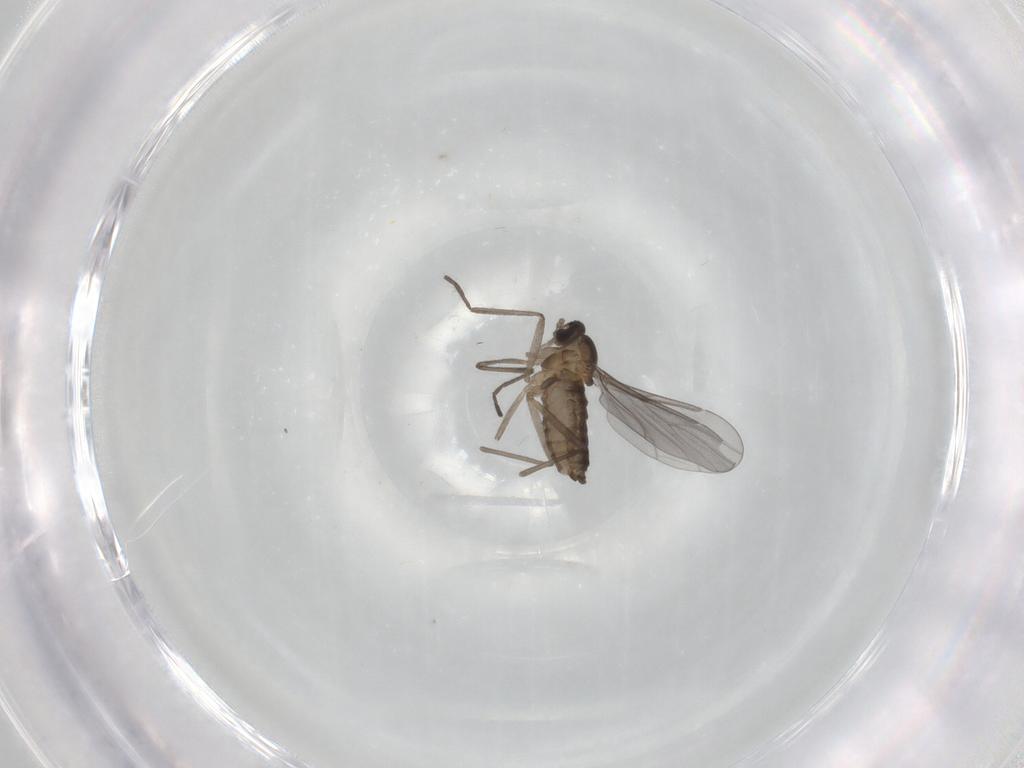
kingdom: Animalia
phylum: Arthropoda
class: Insecta
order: Diptera
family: Cecidomyiidae
